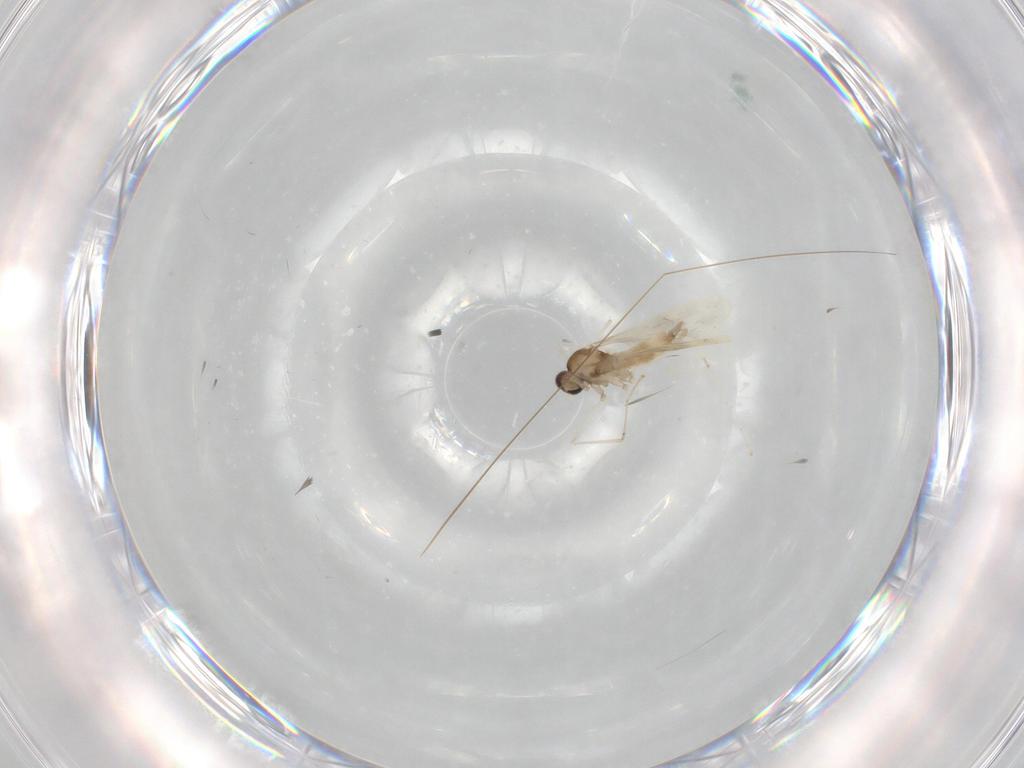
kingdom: Animalia
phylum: Arthropoda
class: Insecta
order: Diptera
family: Cecidomyiidae
